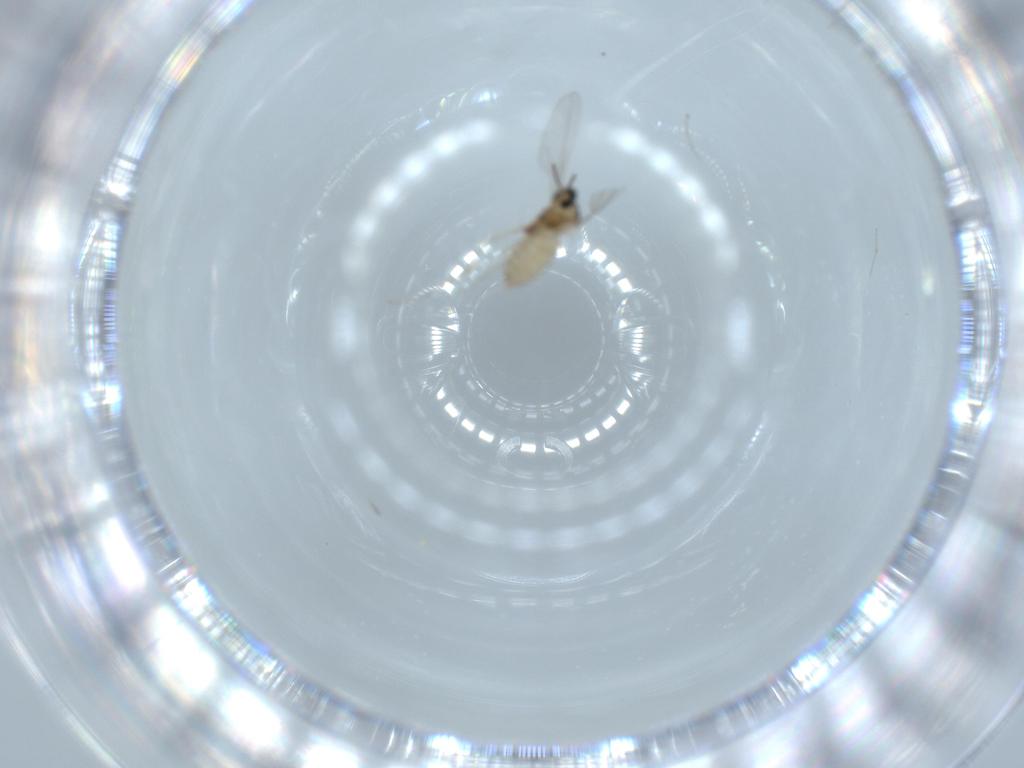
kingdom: Animalia
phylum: Arthropoda
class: Insecta
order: Diptera
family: Cecidomyiidae
